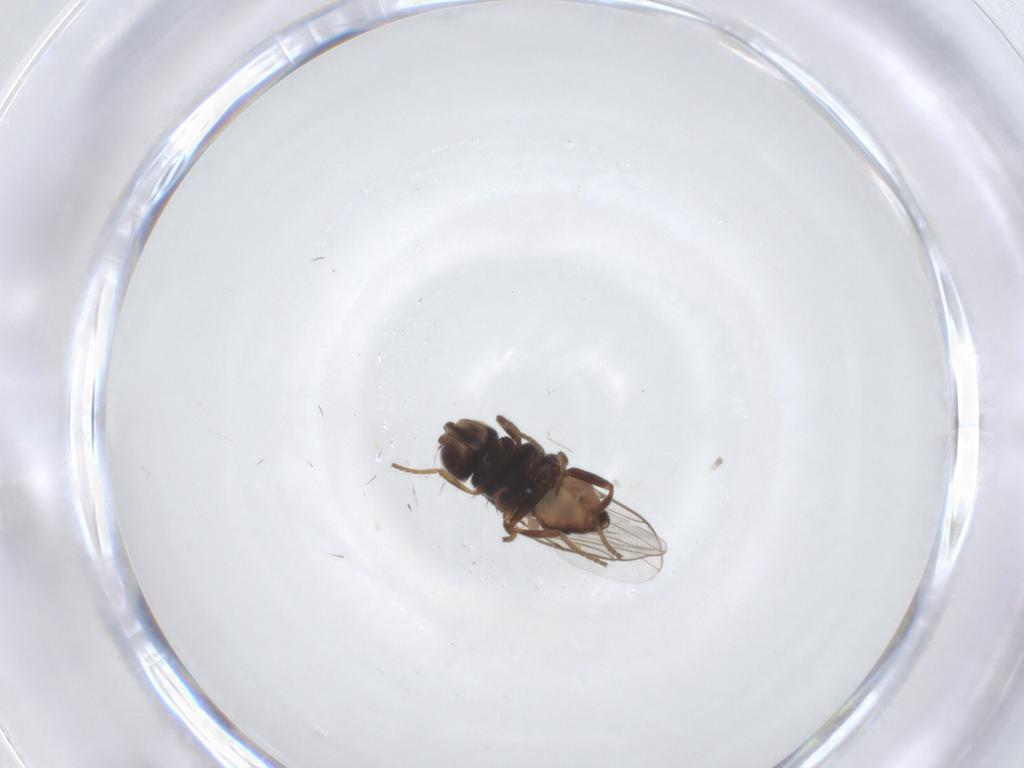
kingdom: Animalia
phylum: Arthropoda
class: Insecta
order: Diptera
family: Chloropidae
